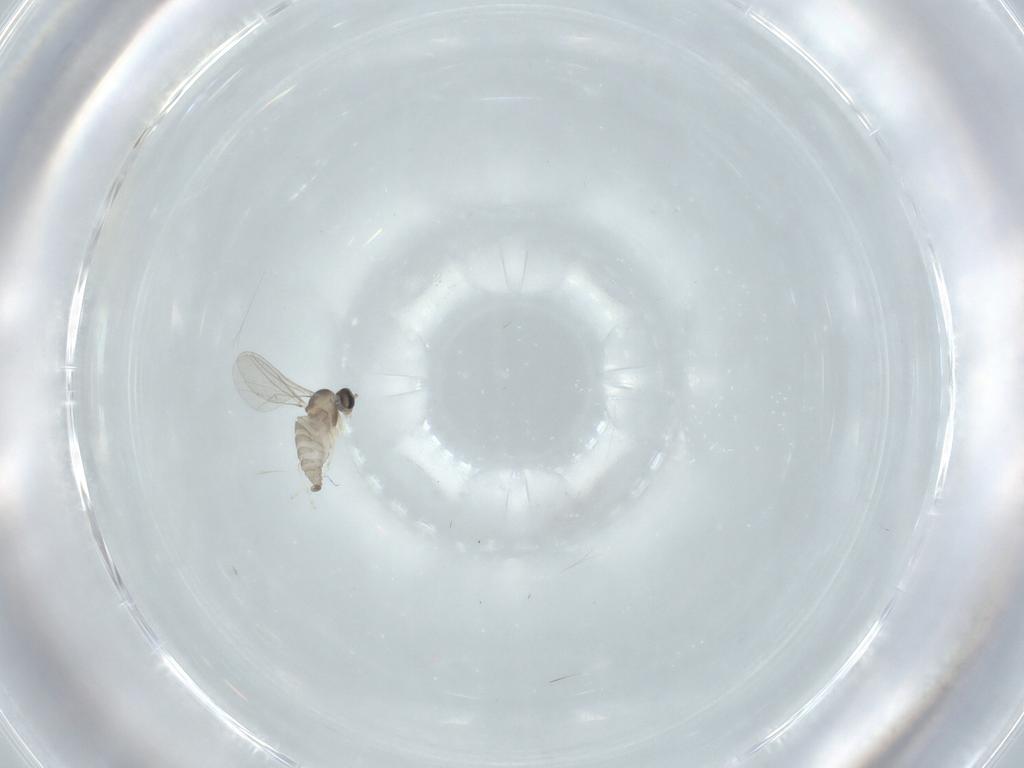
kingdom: Animalia
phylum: Arthropoda
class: Insecta
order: Diptera
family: Cecidomyiidae
